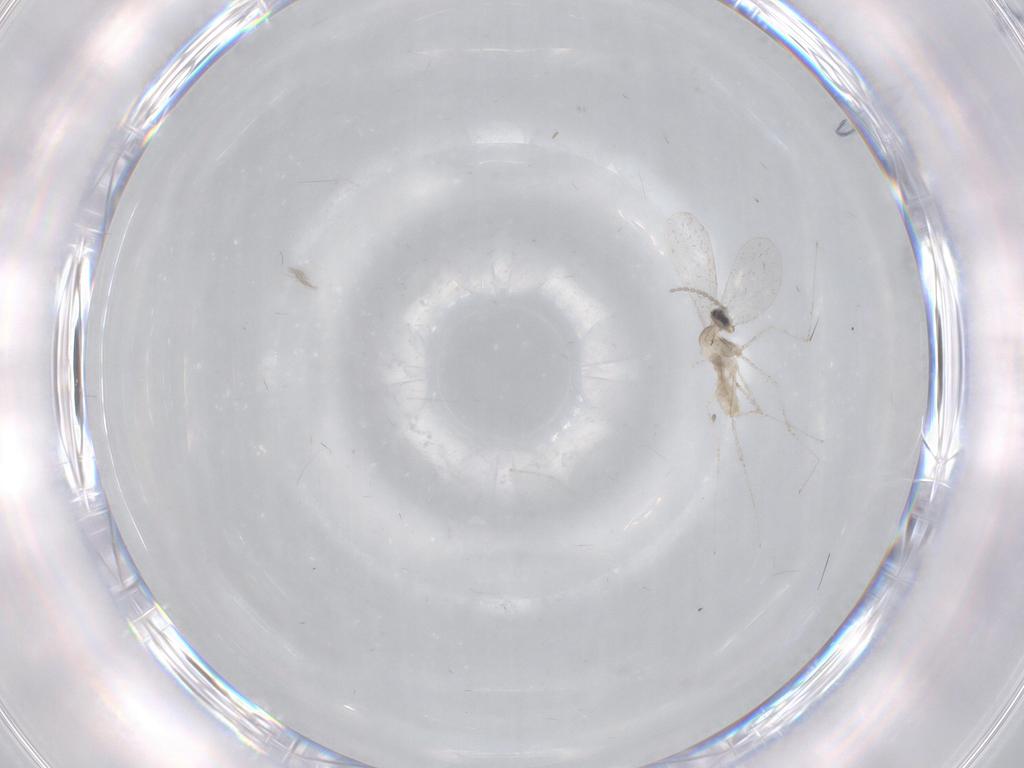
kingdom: Animalia
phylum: Arthropoda
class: Insecta
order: Diptera
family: Cecidomyiidae
